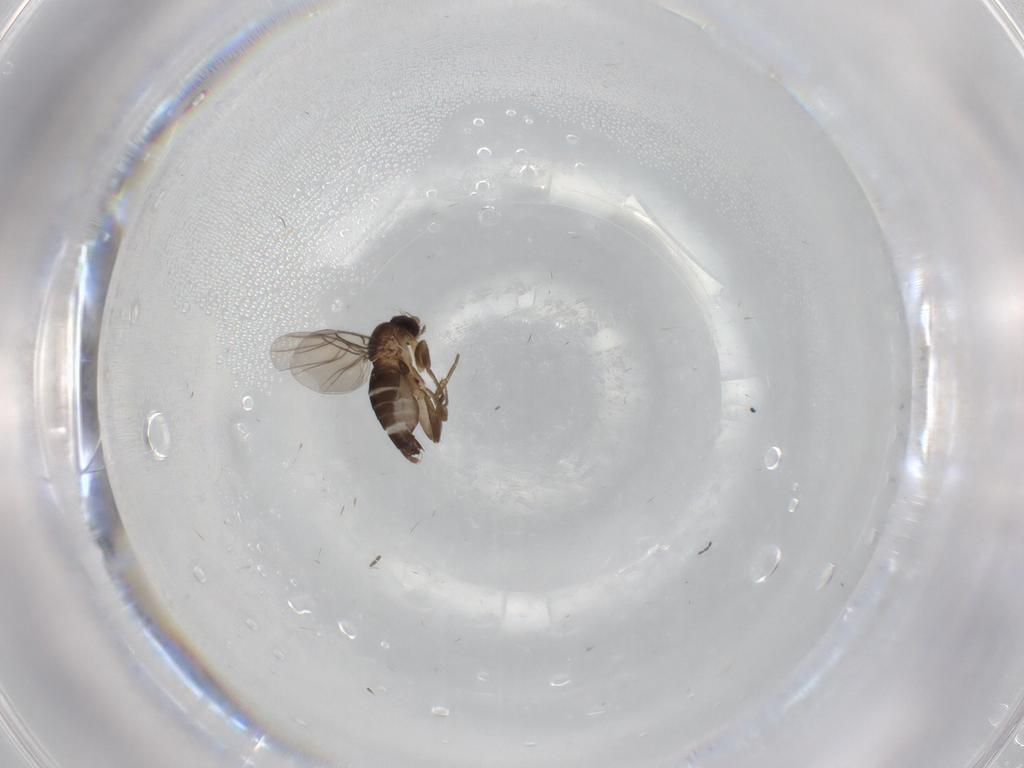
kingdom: Animalia
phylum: Arthropoda
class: Insecta
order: Diptera
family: Phoridae
